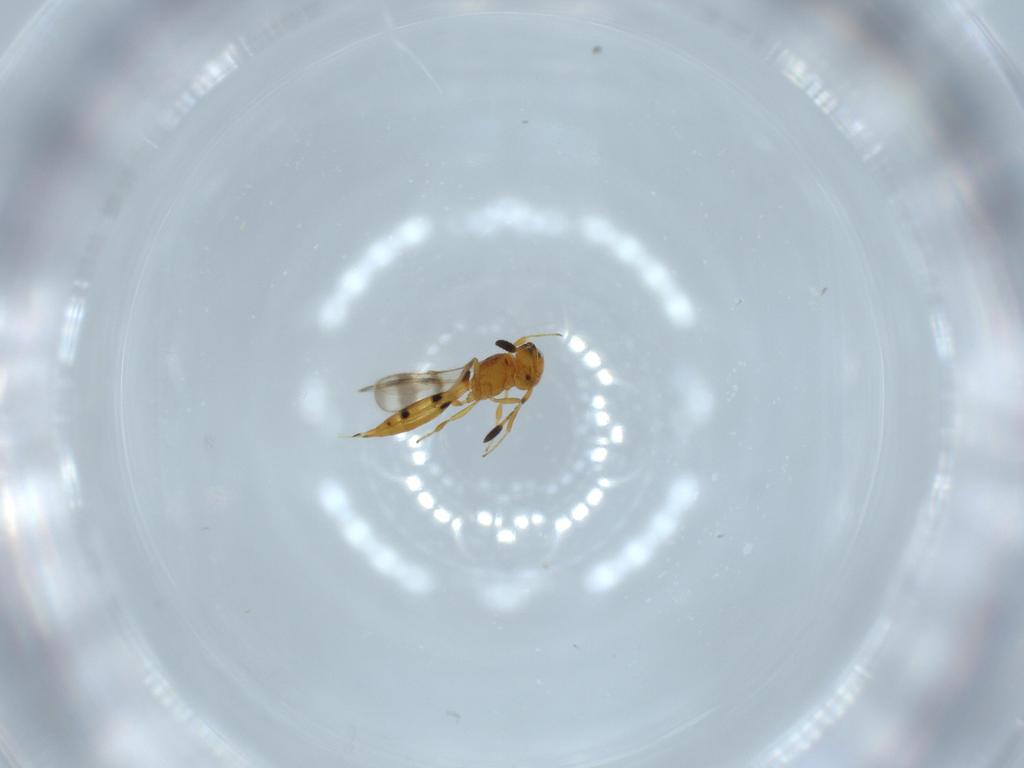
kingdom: Animalia
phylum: Arthropoda
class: Insecta
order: Hymenoptera
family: Scelionidae
